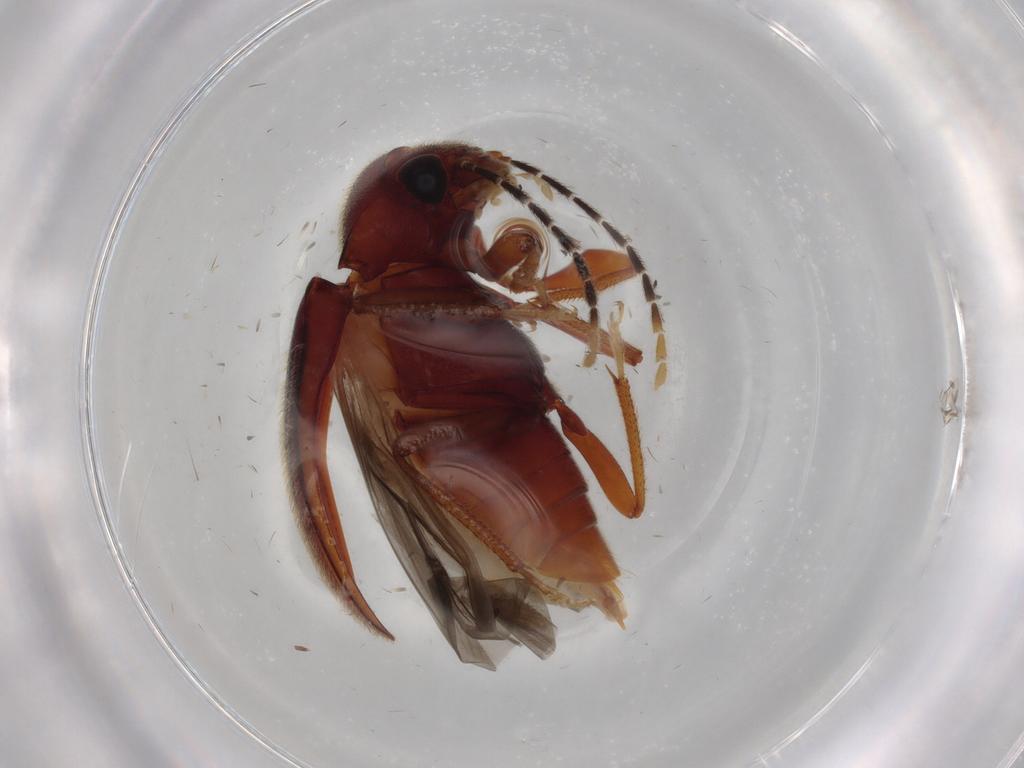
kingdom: Animalia
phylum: Arthropoda
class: Insecta
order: Coleoptera
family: Ptilodactylidae
